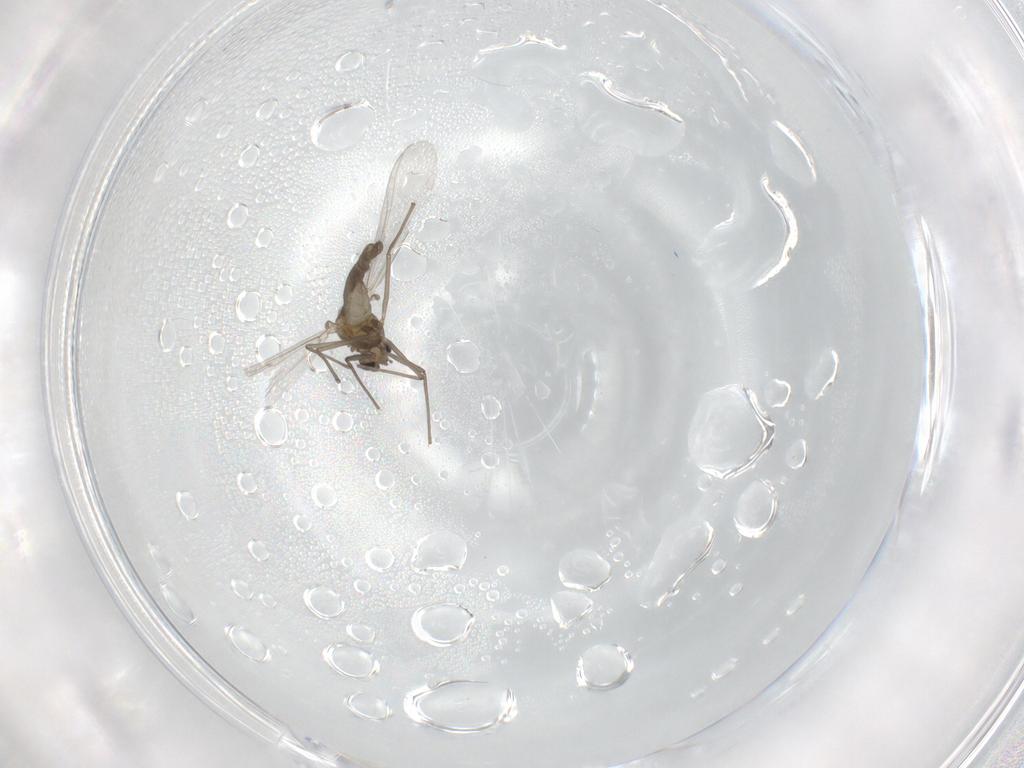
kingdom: Animalia
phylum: Arthropoda
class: Insecta
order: Diptera
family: Chironomidae
